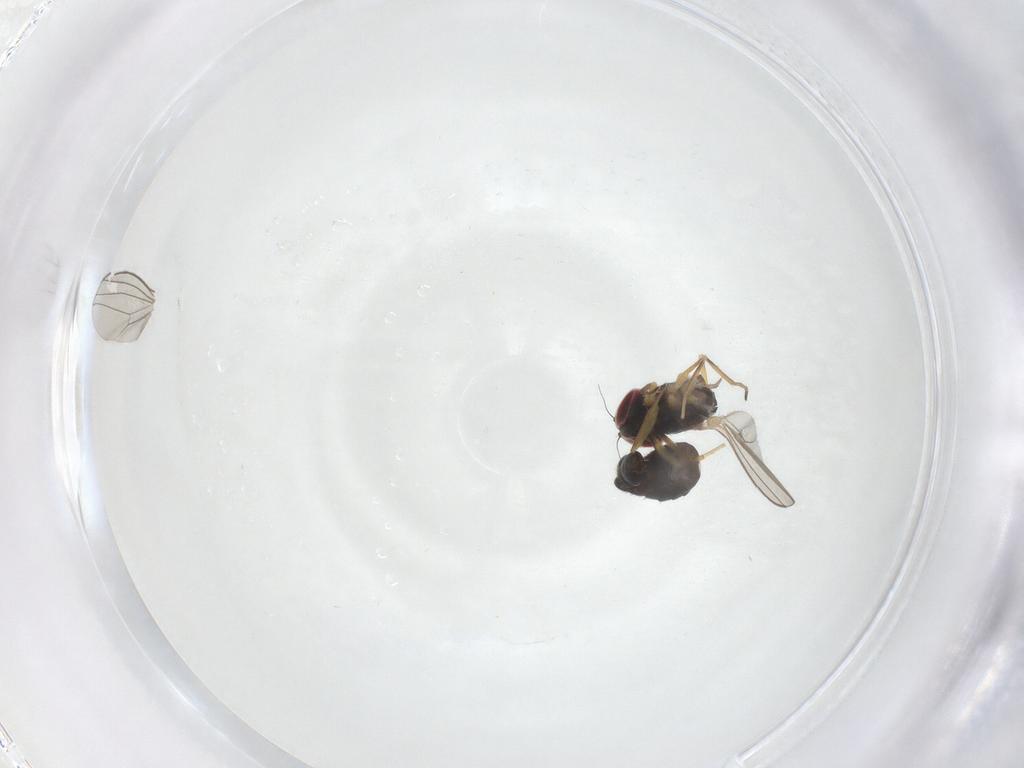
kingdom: Animalia
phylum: Arthropoda
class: Insecta
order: Diptera
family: Dolichopodidae
